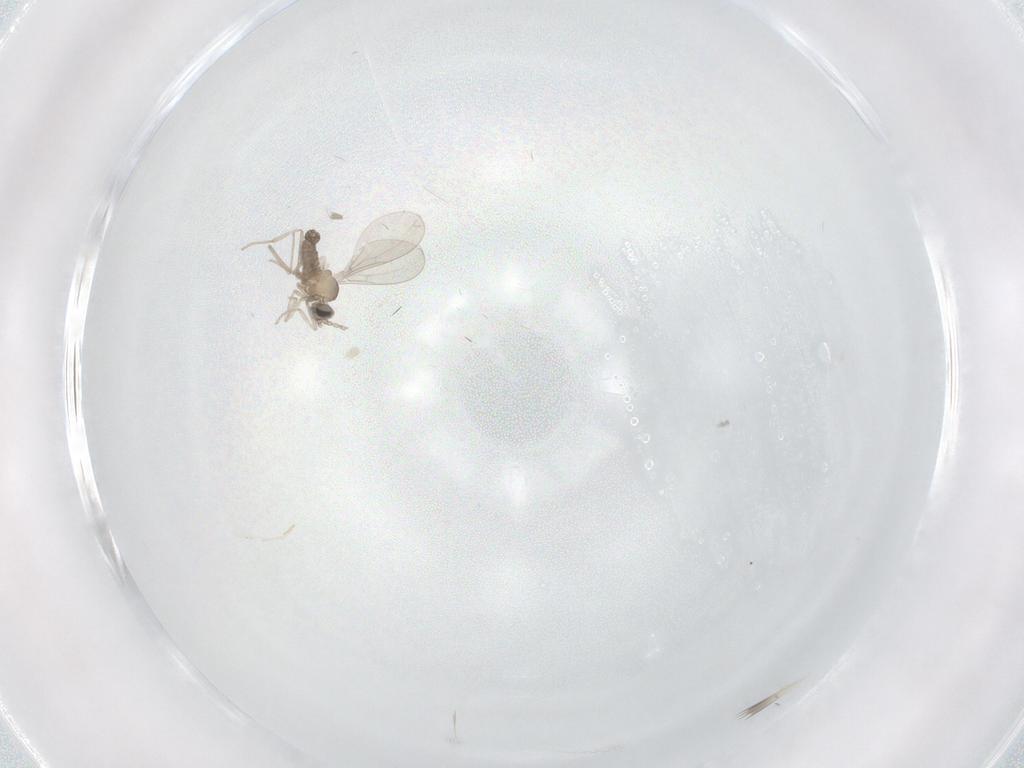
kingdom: Animalia
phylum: Arthropoda
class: Insecta
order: Diptera
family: Cecidomyiidae
